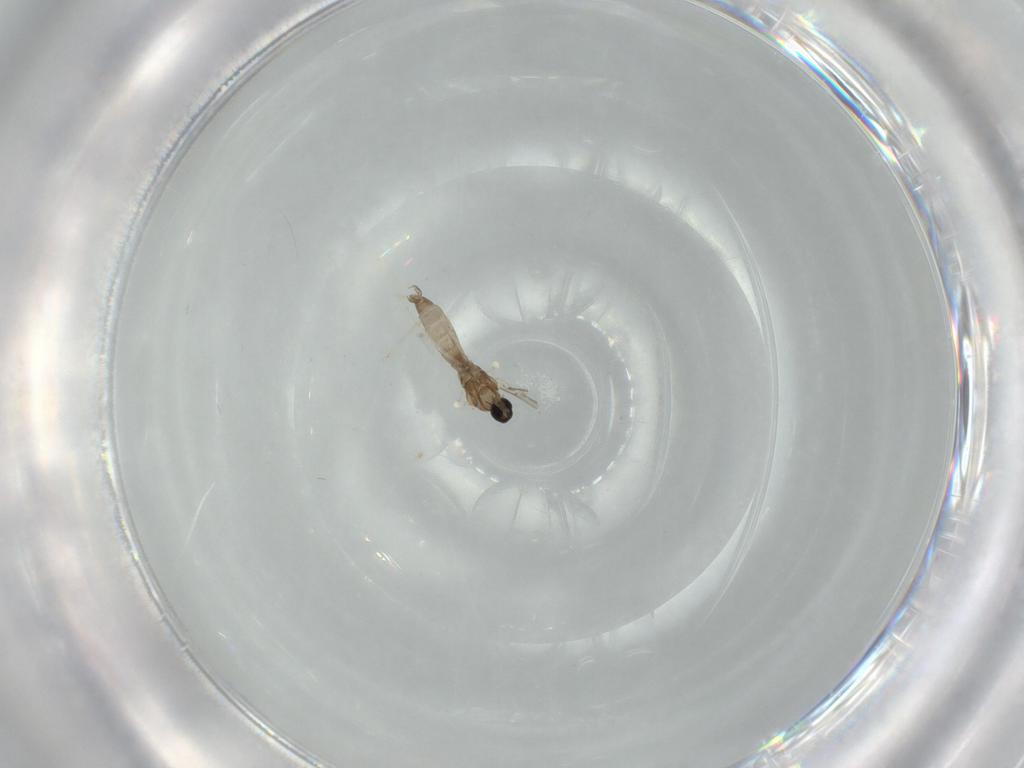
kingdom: Animalia
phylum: Arthropoda
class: Insecta
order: Diptera
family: Cecidomyiidae
